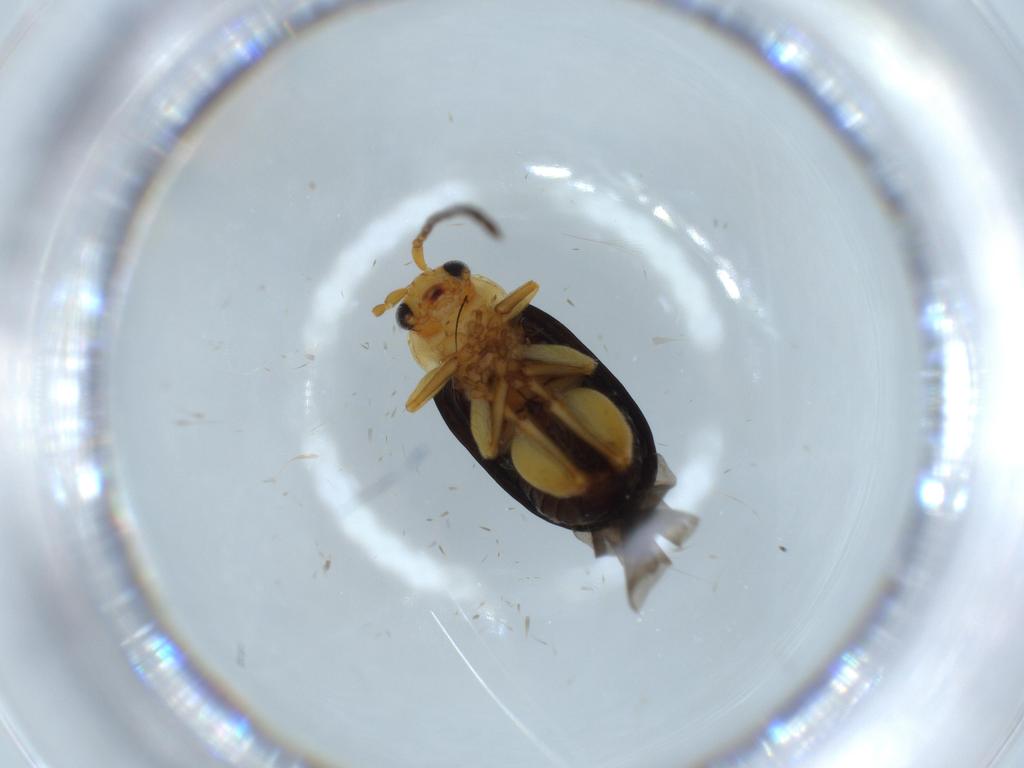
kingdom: Animalia
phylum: Arthropoda
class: Insecta
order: Coleoptera
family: Chrysomelidae
